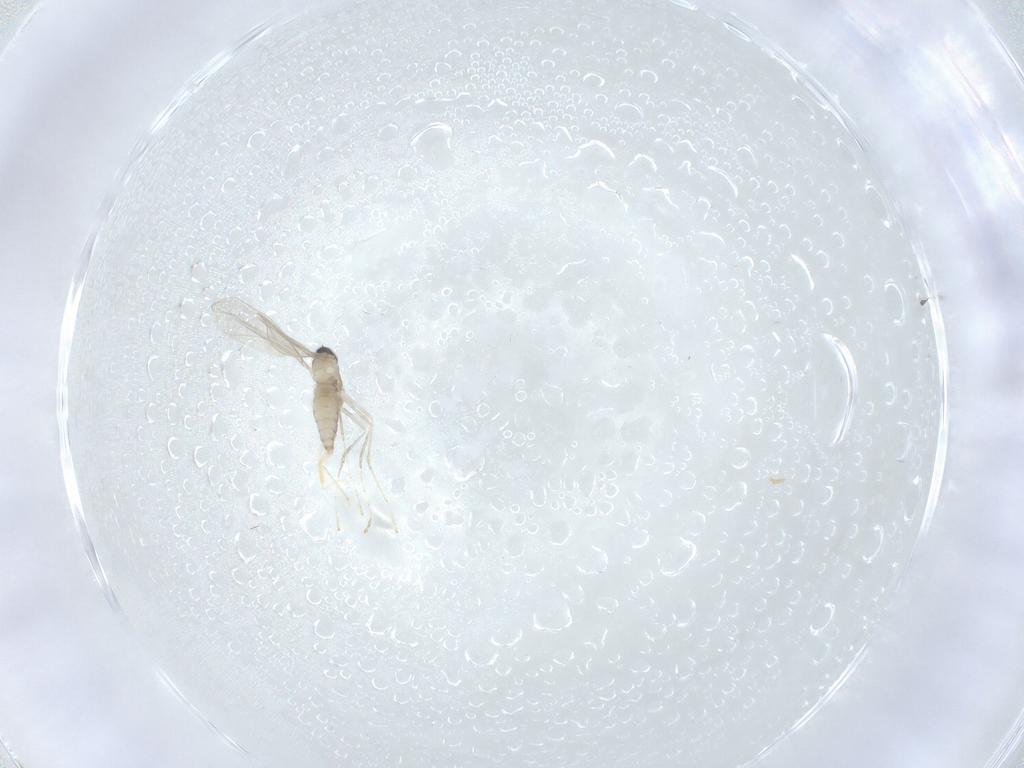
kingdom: Animalia
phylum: Arthropoda
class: Insecta
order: Diptera
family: Cecidomyiidae
